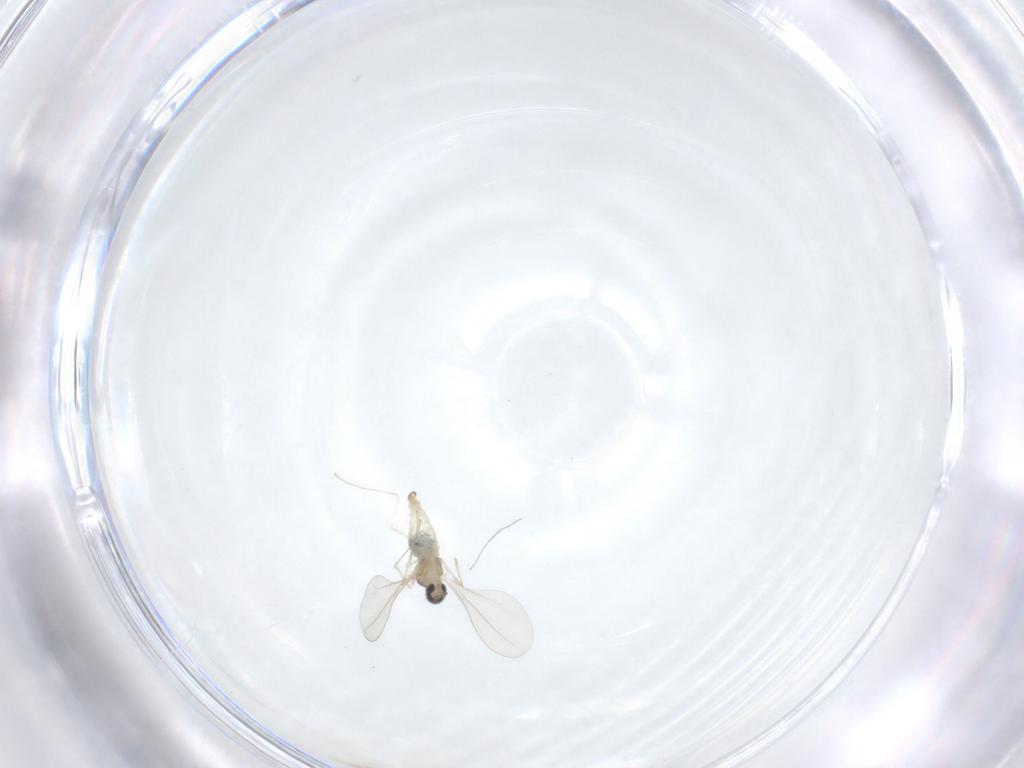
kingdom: Animalia
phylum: Arthropoda
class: Insecta
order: Diptera
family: Cecidomyiidae
